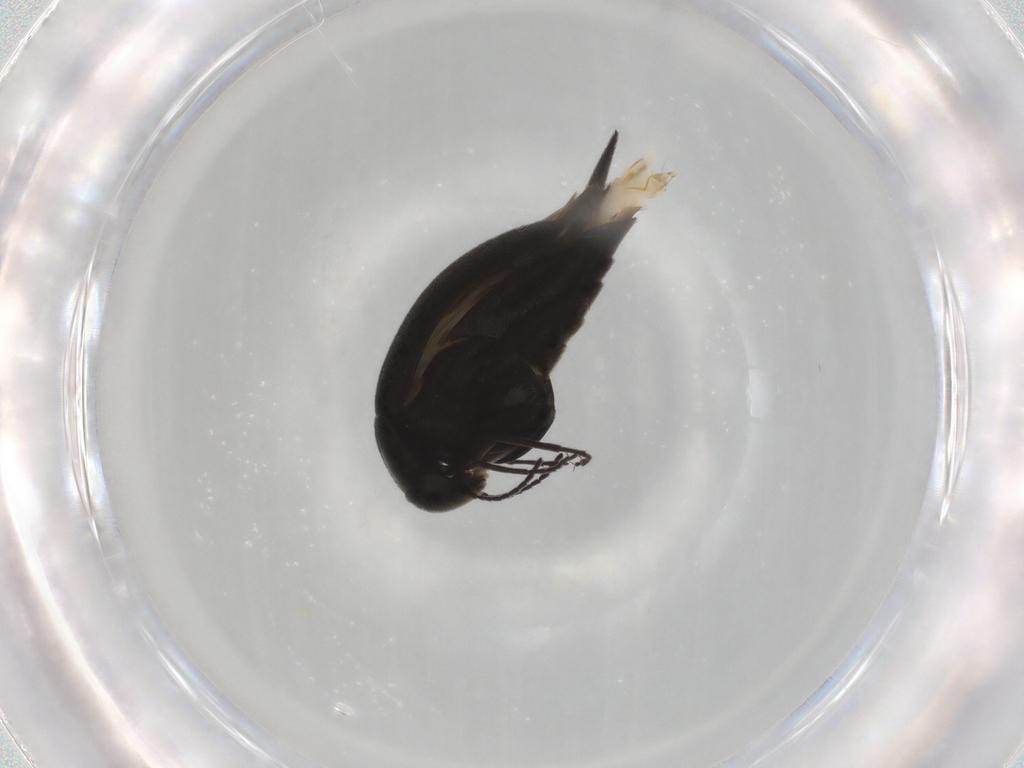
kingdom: Animalia
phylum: Arthropoda
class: Insecta
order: Coleoptera
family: Mordellidae
